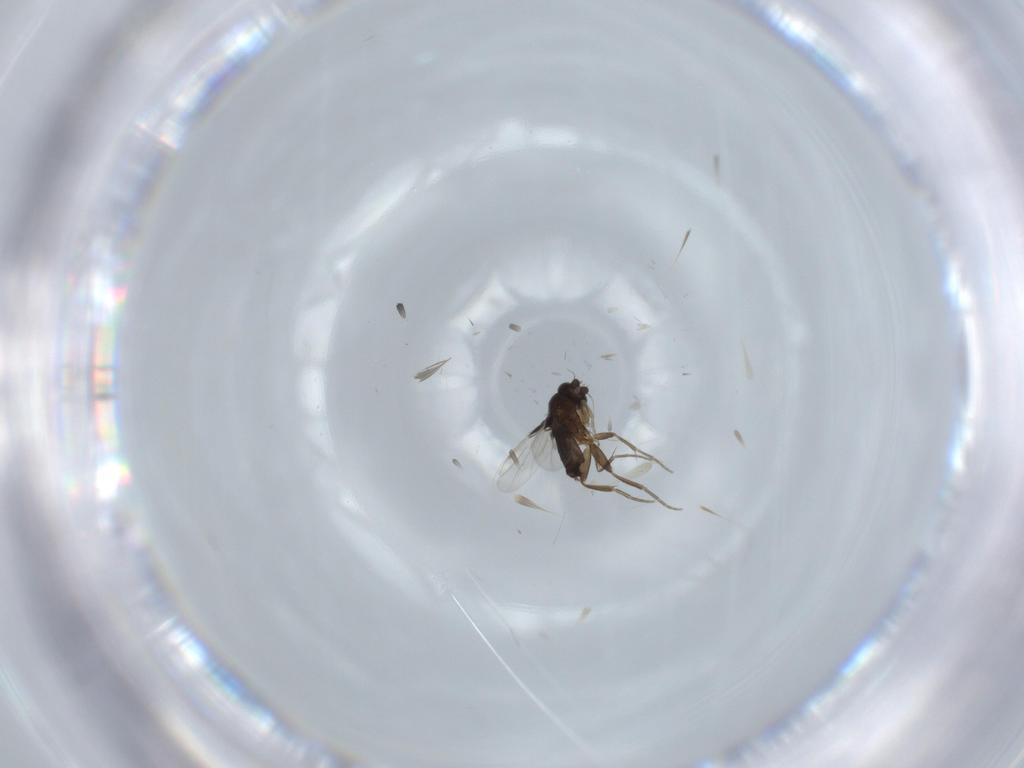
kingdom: Animalia
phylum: Arthropoda
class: Insecta
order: Diptera
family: Phoridae
